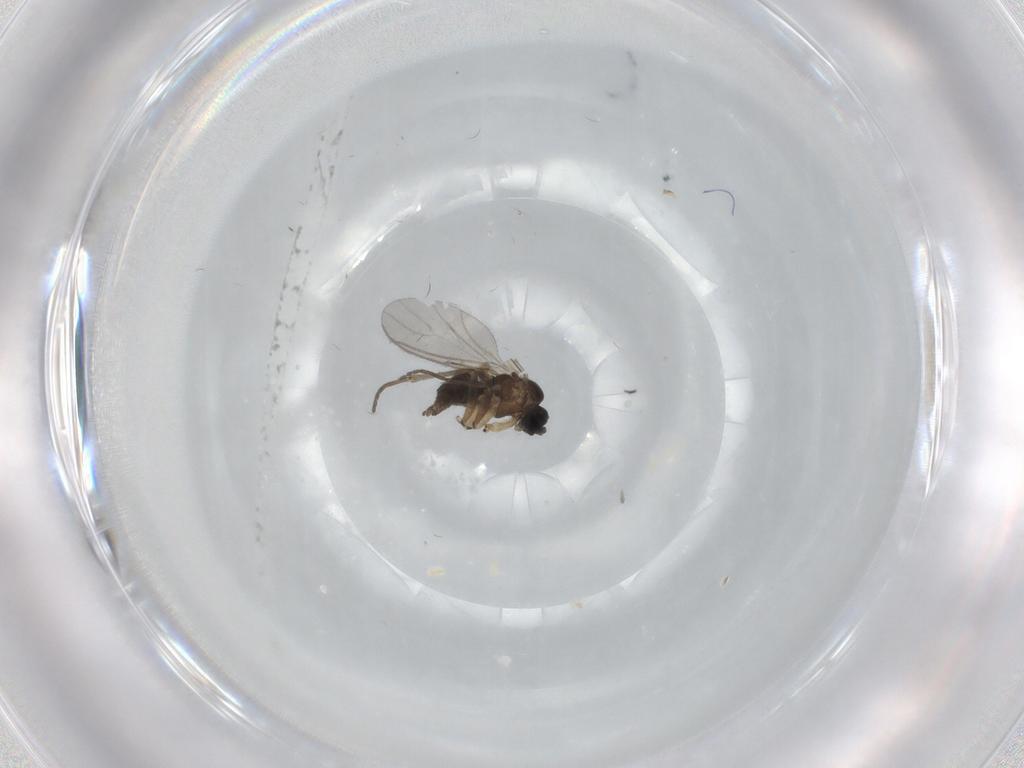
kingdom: Animalia
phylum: Arthropoda
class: Insecta
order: Diptera
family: Sciaridae
